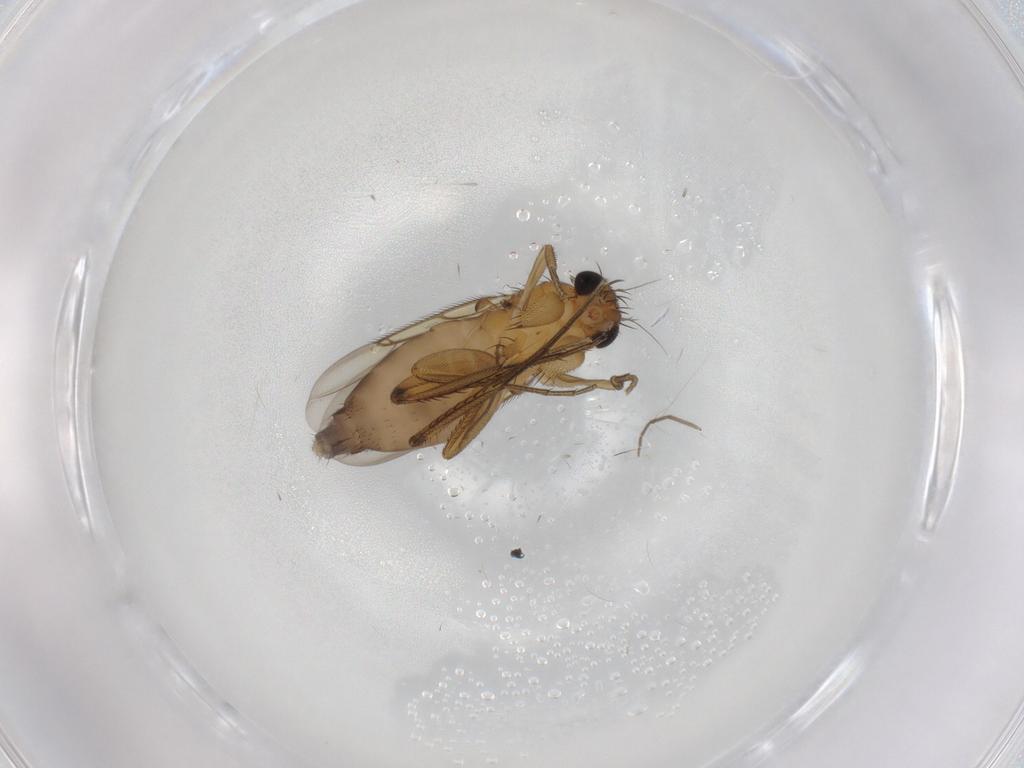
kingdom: Animalia
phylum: Arthropoda
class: Insecta
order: Diptera
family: Phoridae
